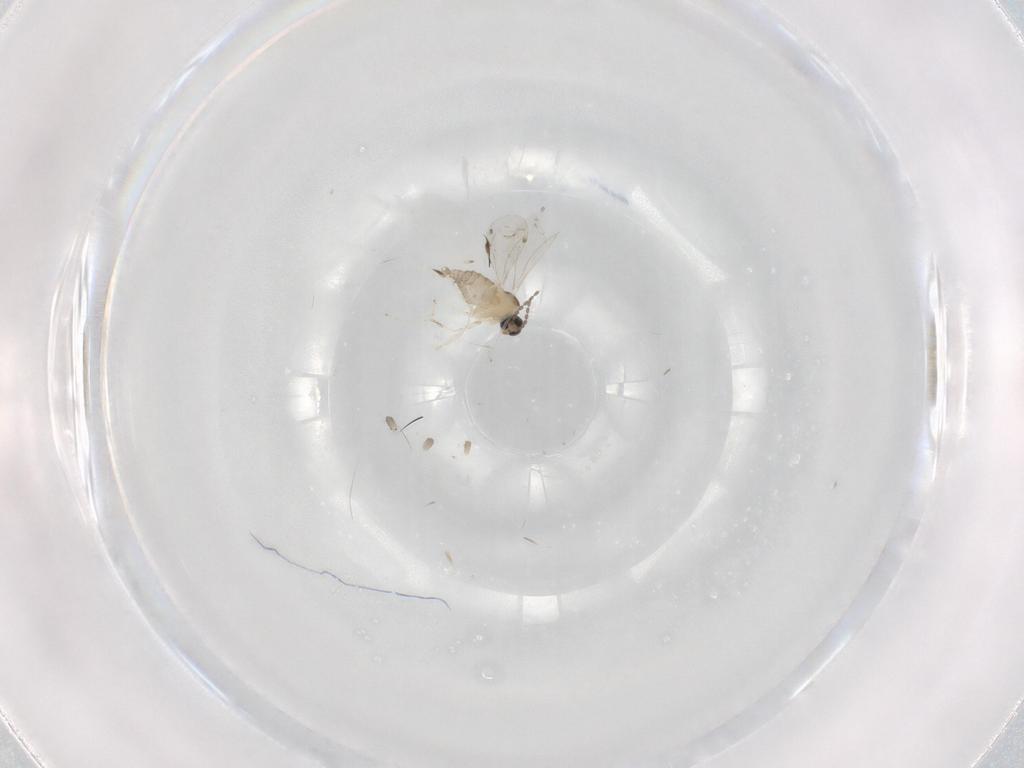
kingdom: Animalia
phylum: Arthropoda
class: Insecta
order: Diptera
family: Cecidomyiidae
